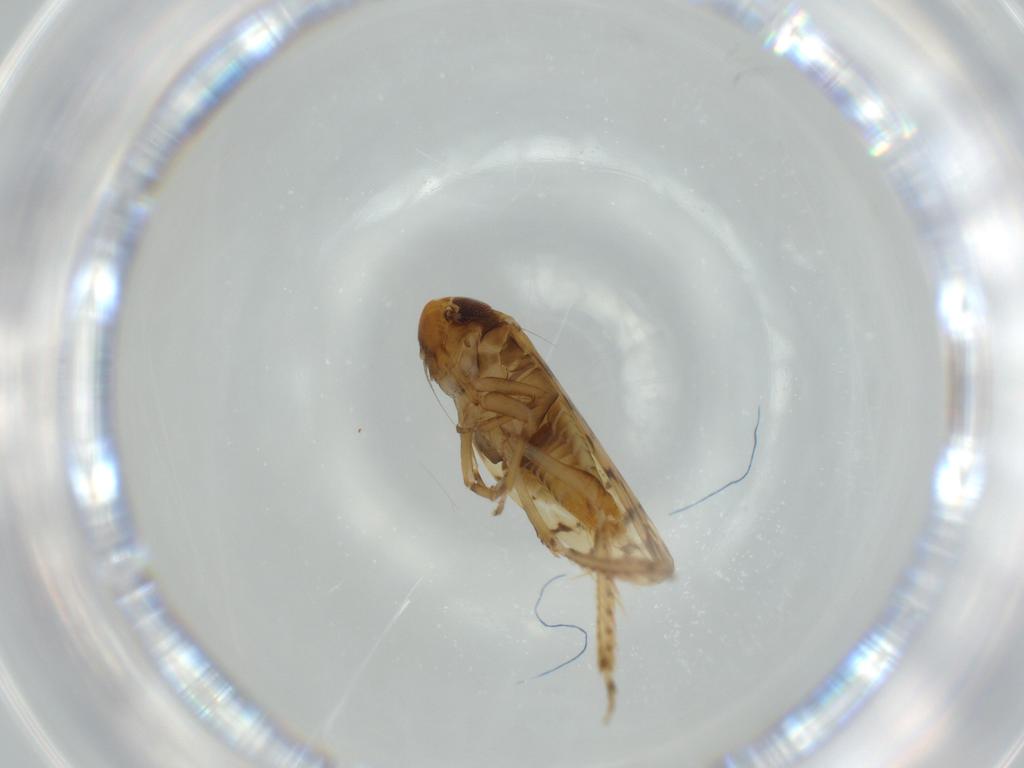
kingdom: Animalia
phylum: Arthropoda
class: Insecta
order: Hemiptera
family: Cicadellidae
